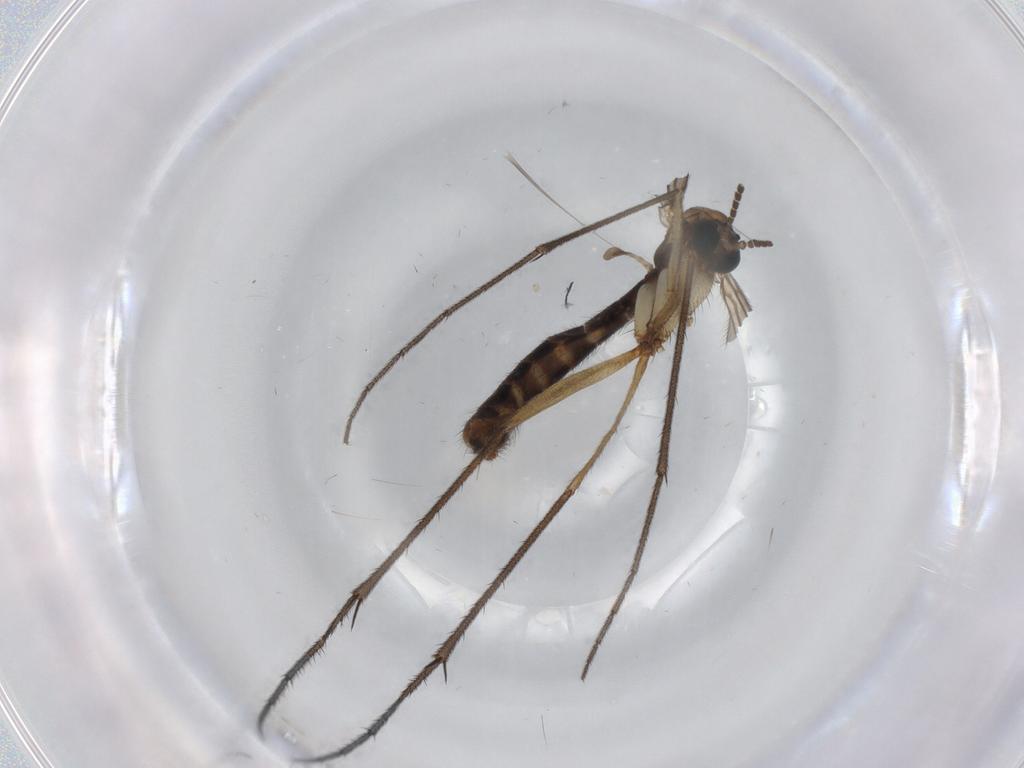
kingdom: Animalia
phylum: Arthropoda
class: Insecta
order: Diptera
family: Ditomyiidae
